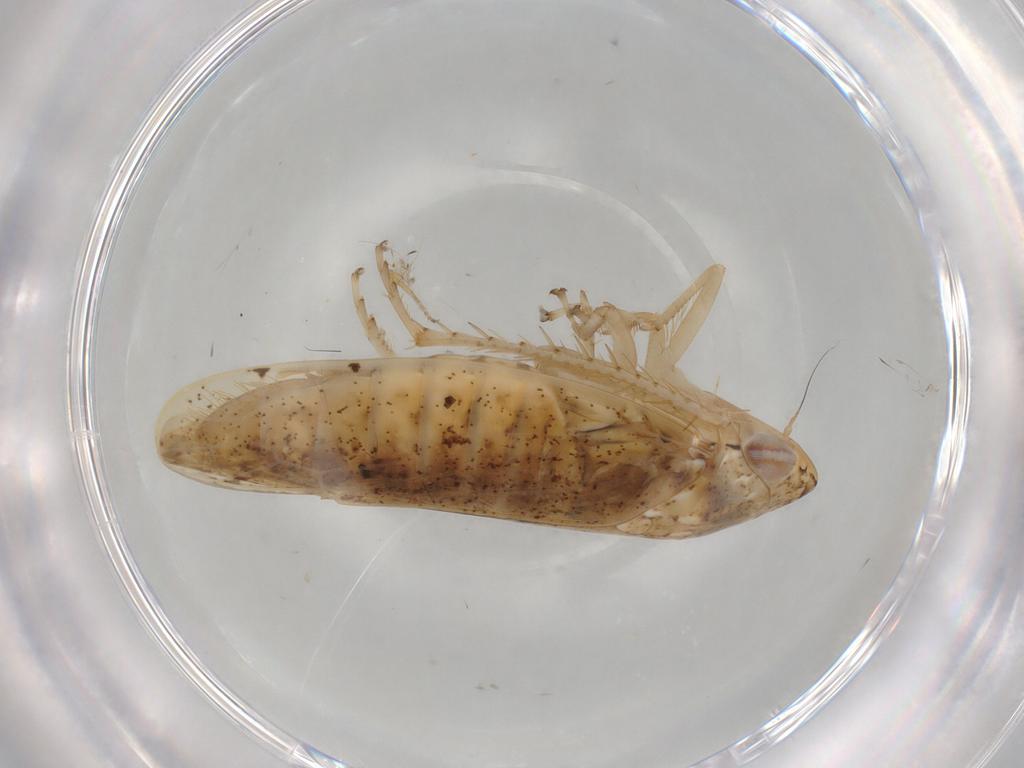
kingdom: Animalia
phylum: Arthropoda
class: Insecta
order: Hemiptera
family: Cicadellidae
